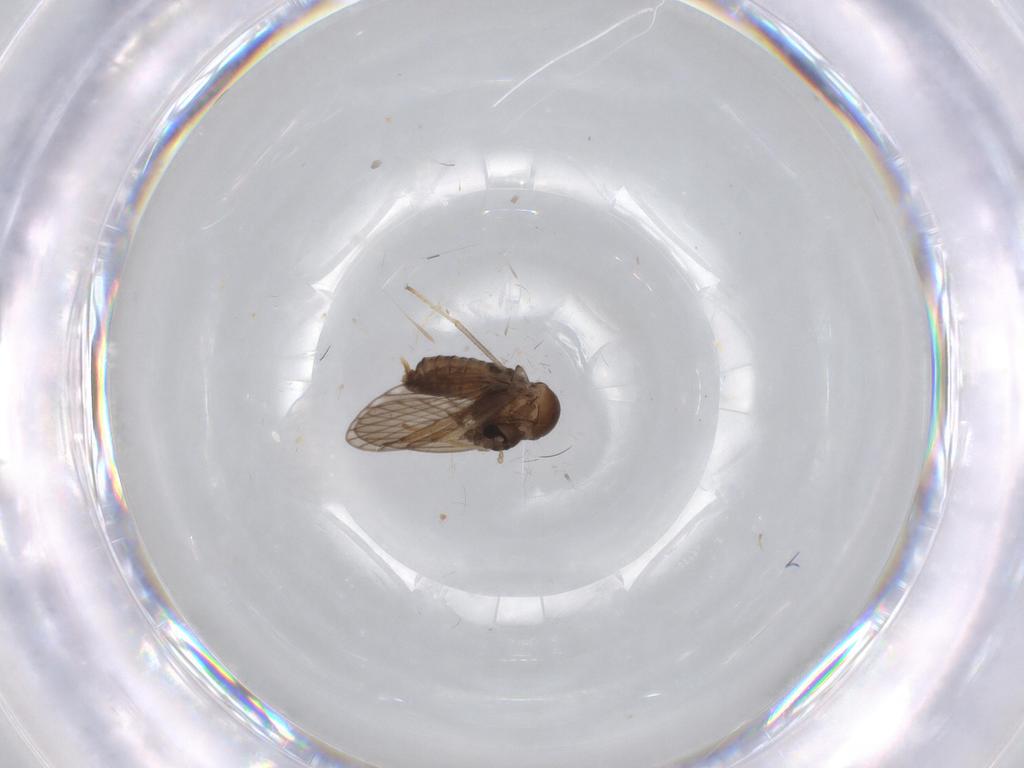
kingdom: Animalia
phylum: Arthropoda
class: Insecta
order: Diptera
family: Psychodidae
